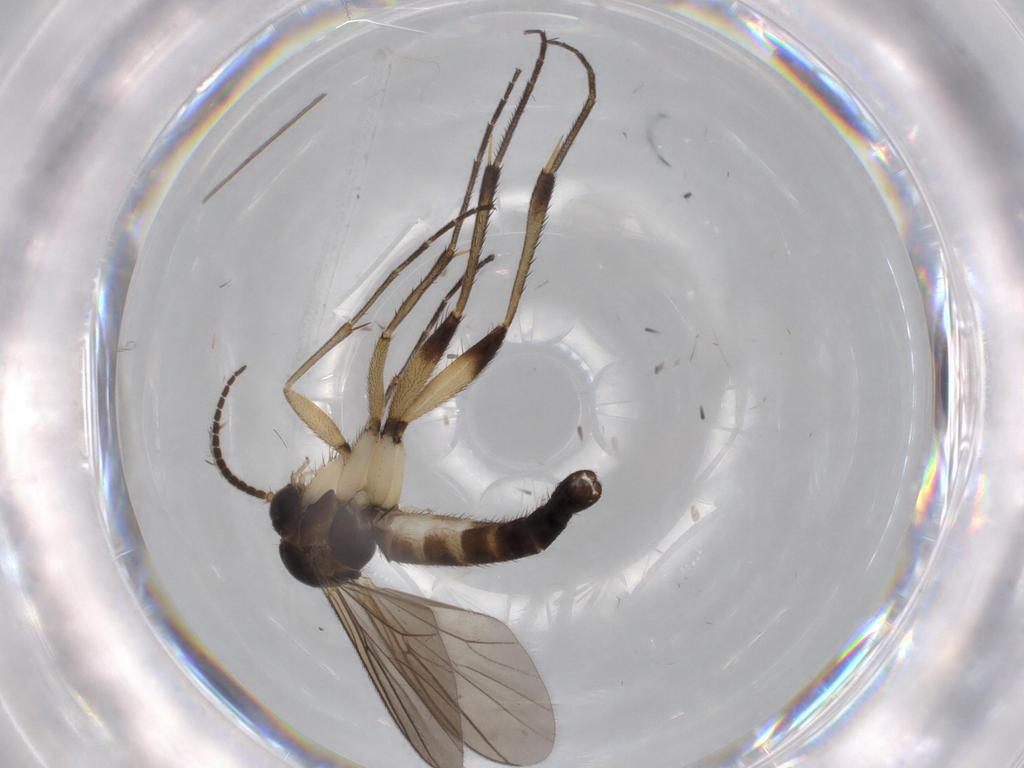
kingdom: Animalia
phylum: Arthropoda
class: Insecta
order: Diptera
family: Mycetophilidae
